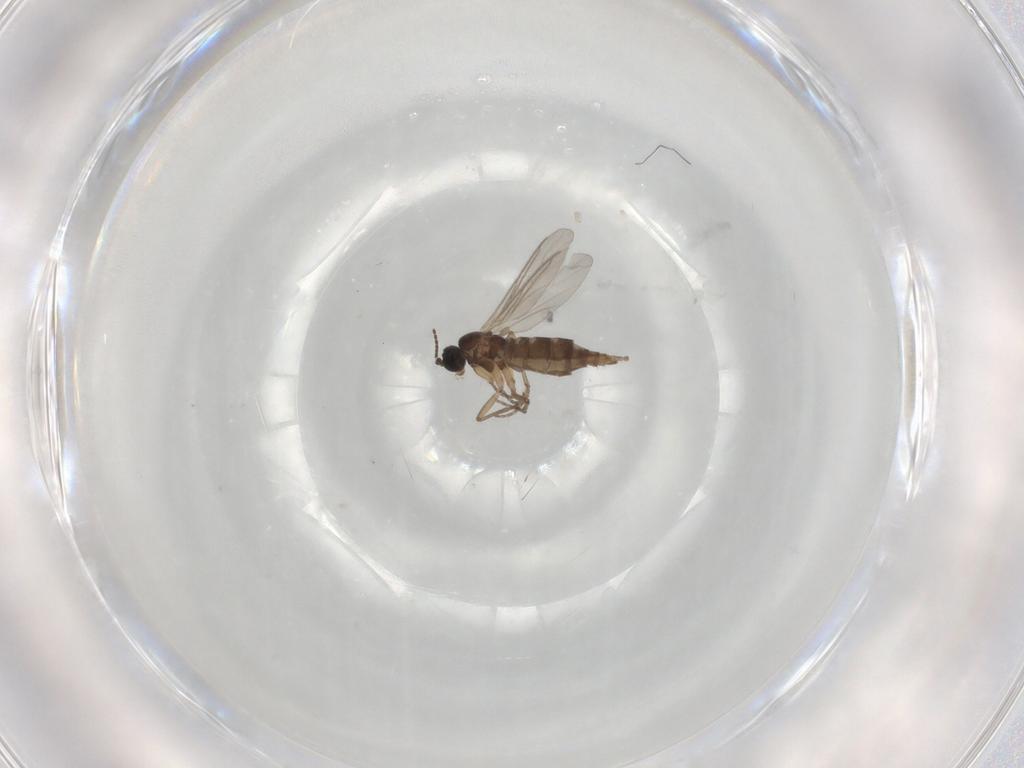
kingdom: Animalia
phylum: Arthropoda
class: Insecta
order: Diptera
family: Sciaridae
